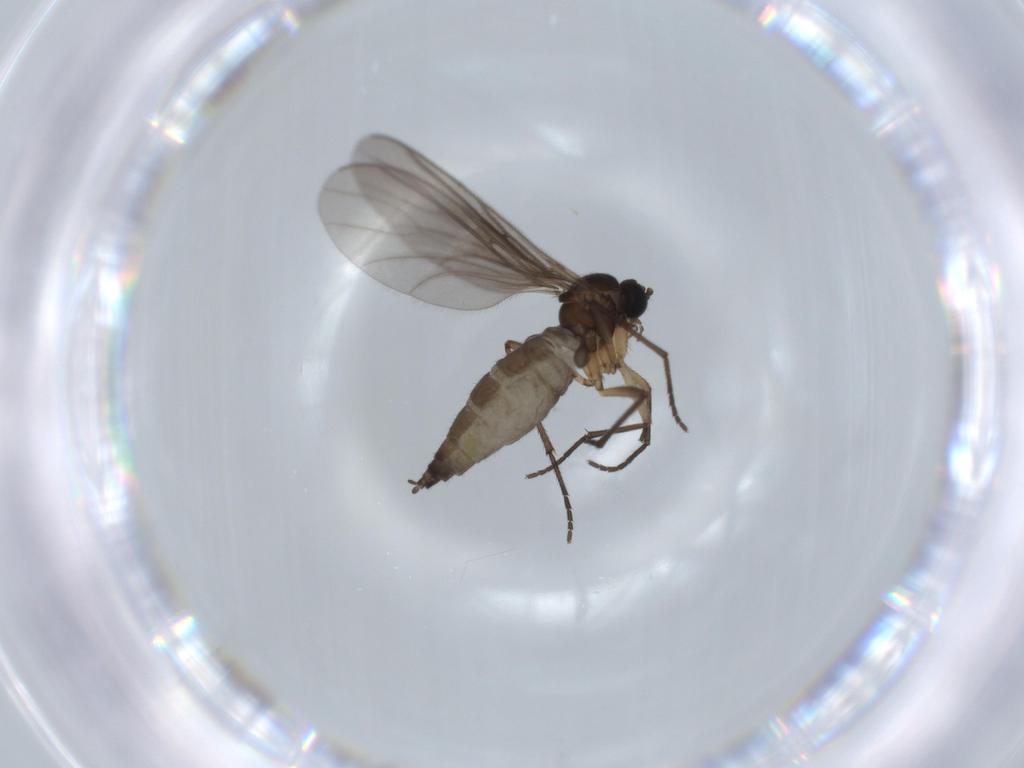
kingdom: Animalia
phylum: Arthropoda
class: Insecta
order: Diptera
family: Sciaridae
